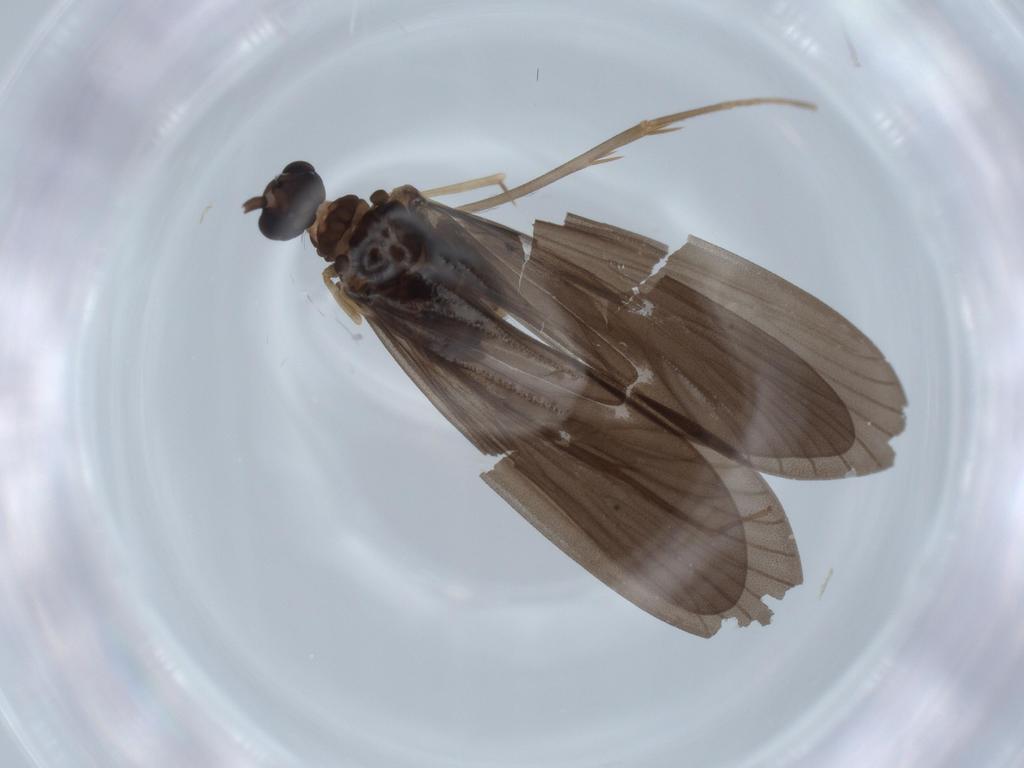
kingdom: Animalia
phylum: Arthropoda
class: Insecta
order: Trichoptera
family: Ptilocolepidae
